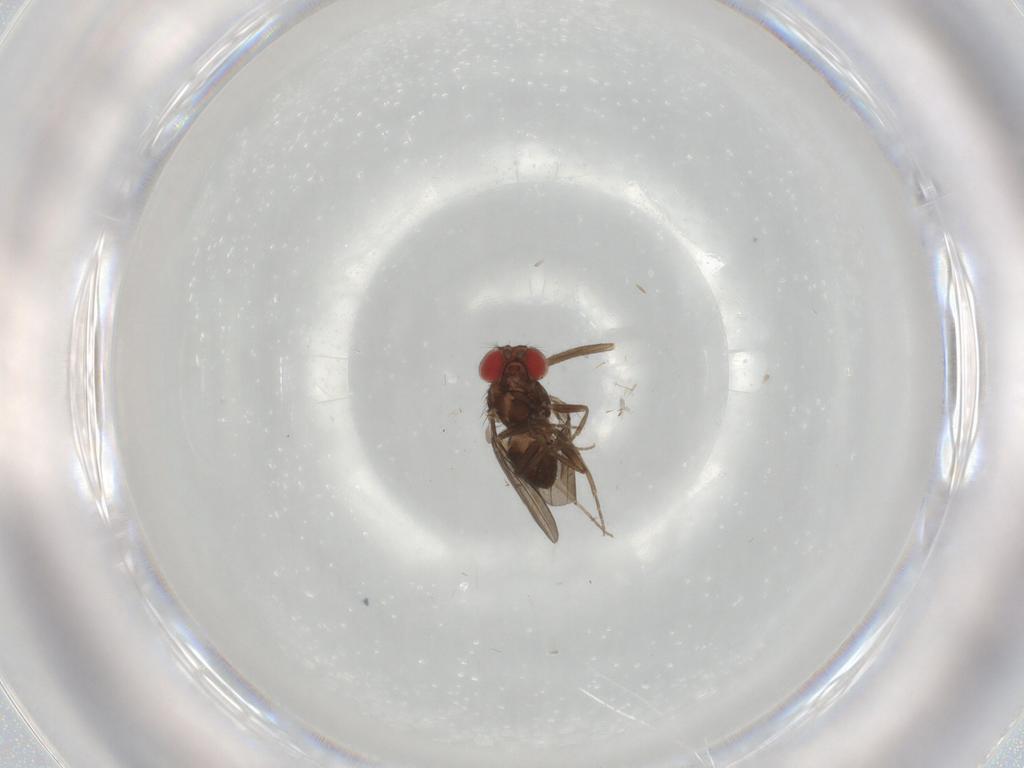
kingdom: Animalia
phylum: Arthropoda
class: Insecta
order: Diptera
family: Drosophilidae
